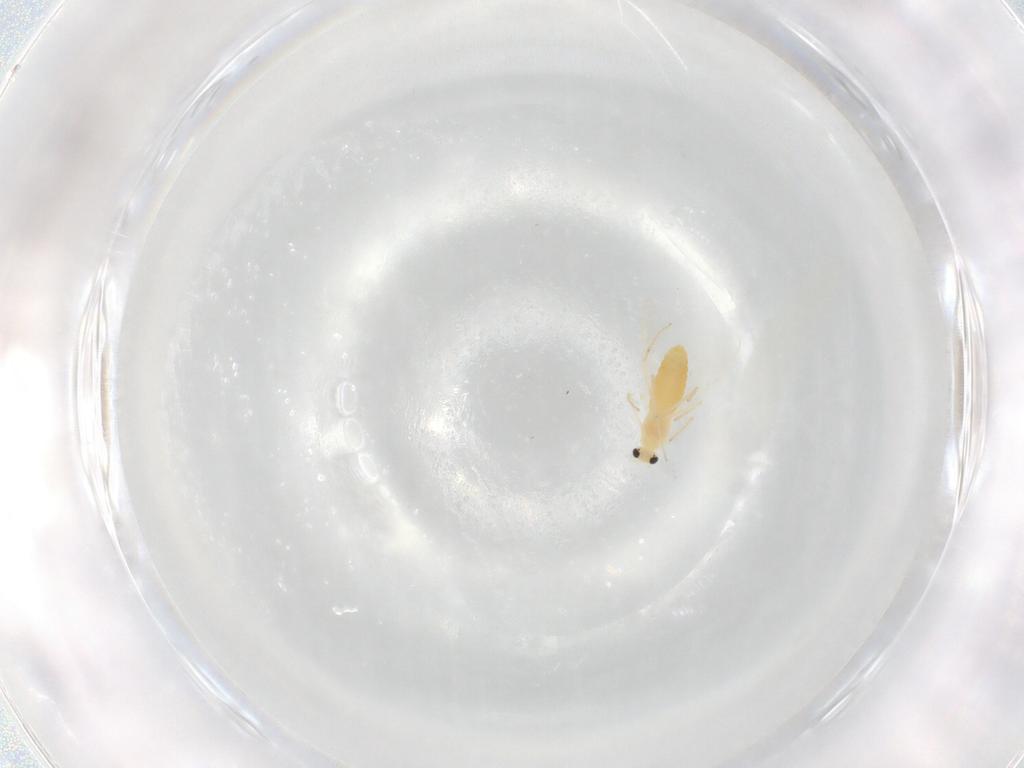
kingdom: Animalia
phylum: Arthropoda
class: Insecta
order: Diptera
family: Chironomidae
